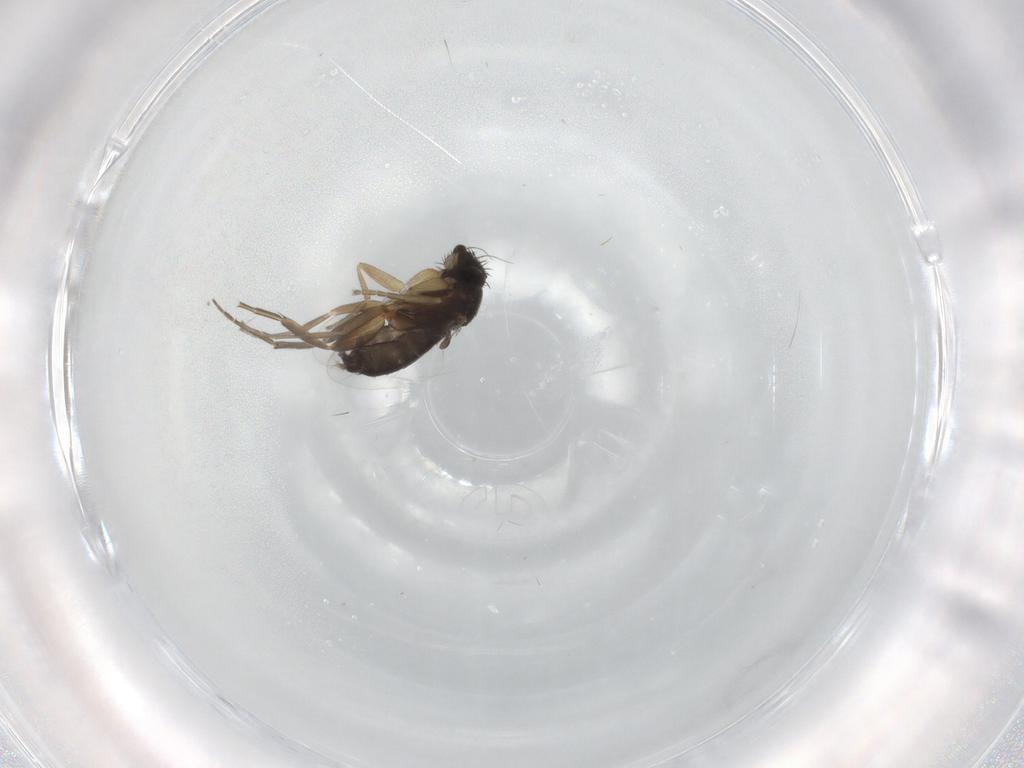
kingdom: Animalia
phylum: Arthropoda
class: Insecta
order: Diptera
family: Phoridae
